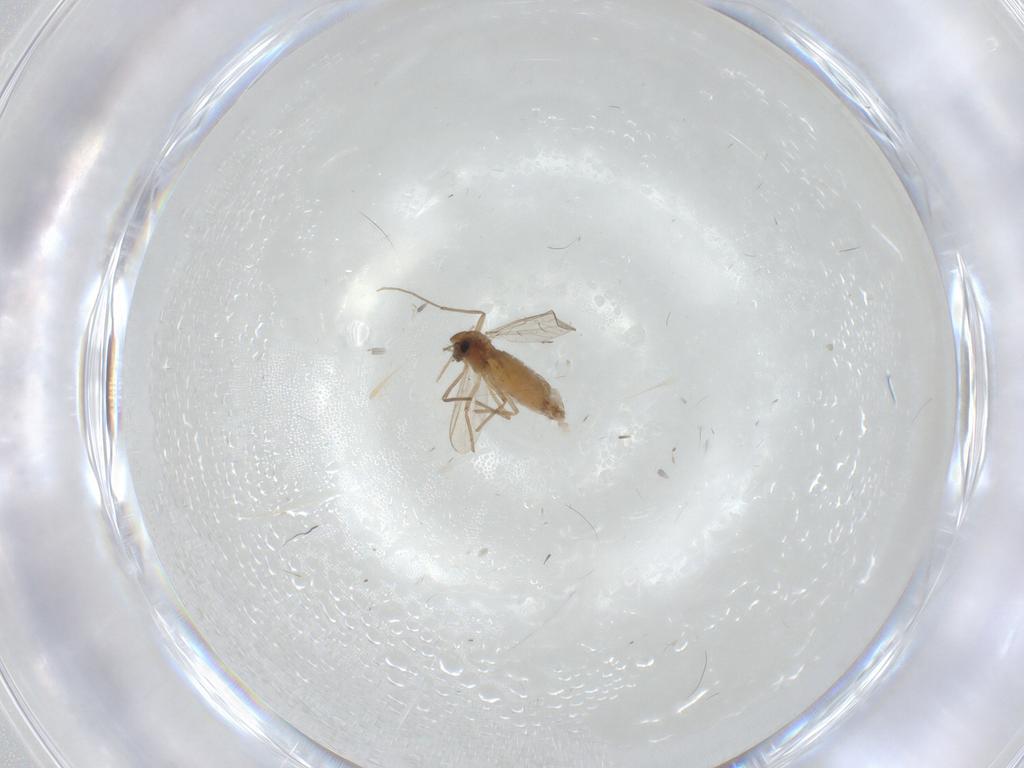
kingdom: Animalia
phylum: Arthropoda
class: Insecta
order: Diptera
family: Chironomidae
